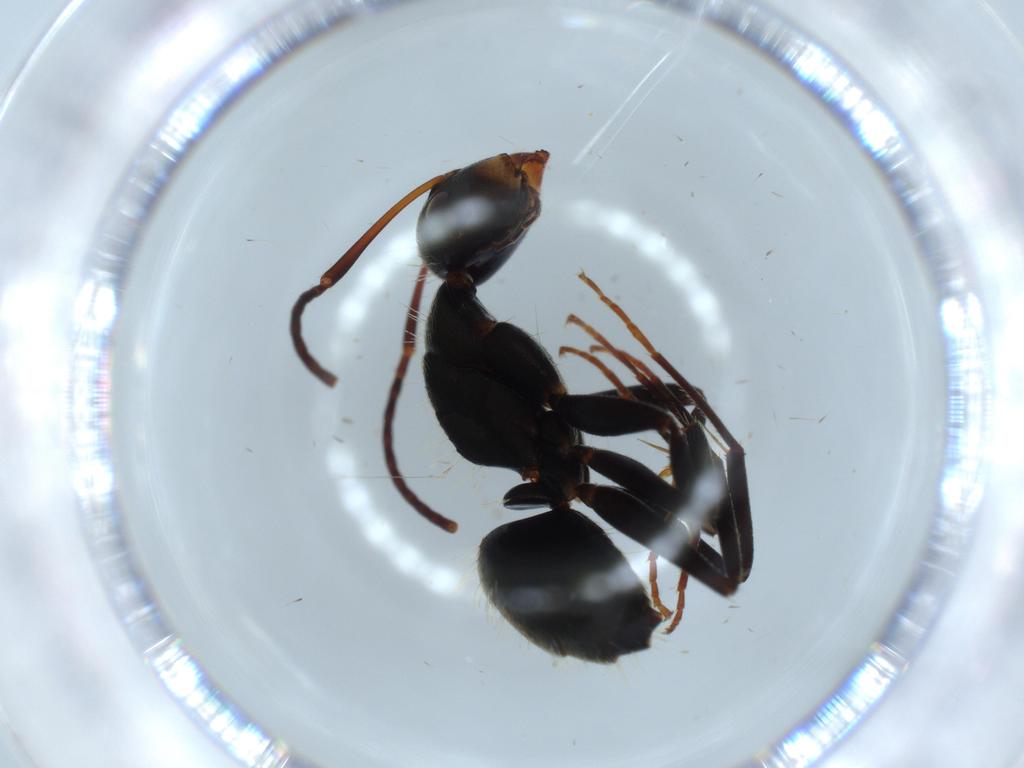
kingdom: Animalia
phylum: Arthropoda
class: Insecta
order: Hymenoptera
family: Formicidae
